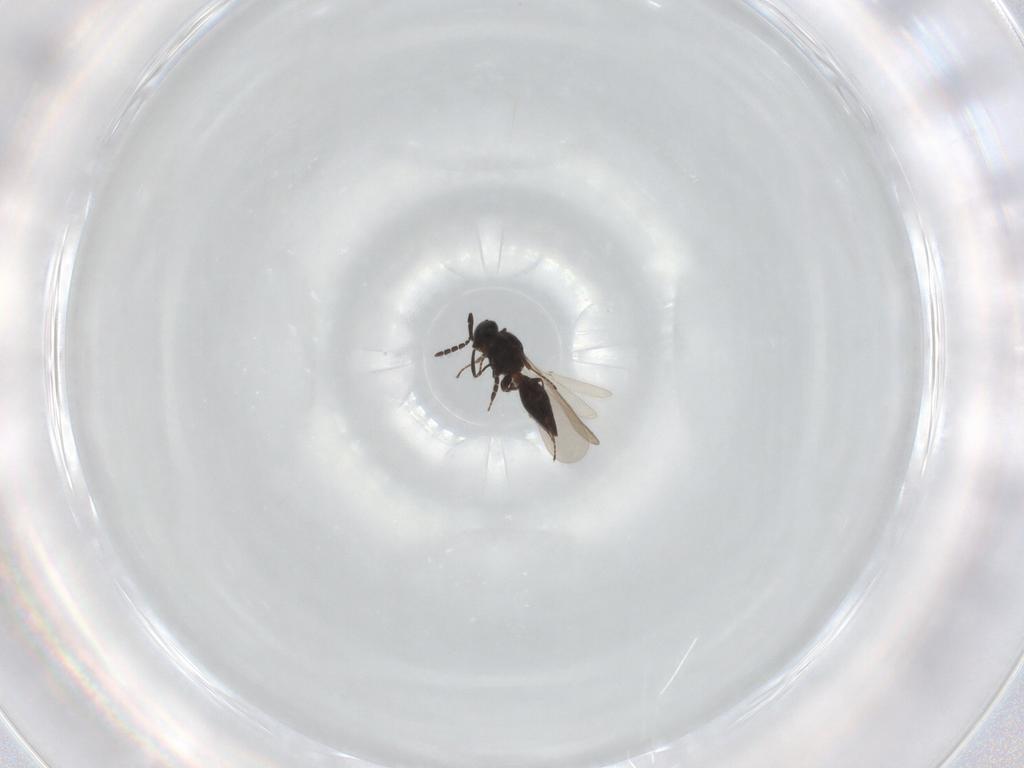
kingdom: Animalia
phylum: Arthropoda
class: Insecta
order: Hymenoptera
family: Platygastridae
